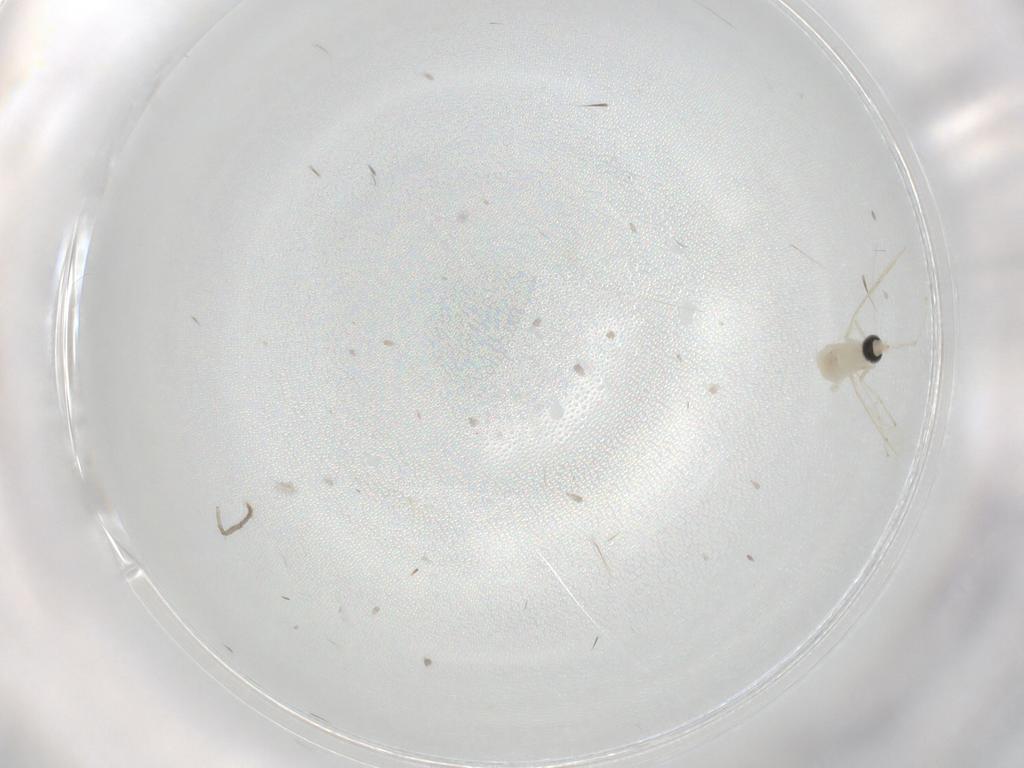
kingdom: Animalia
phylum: Arthropoda
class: Insecta
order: Diptera
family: Cecidomyiidae
